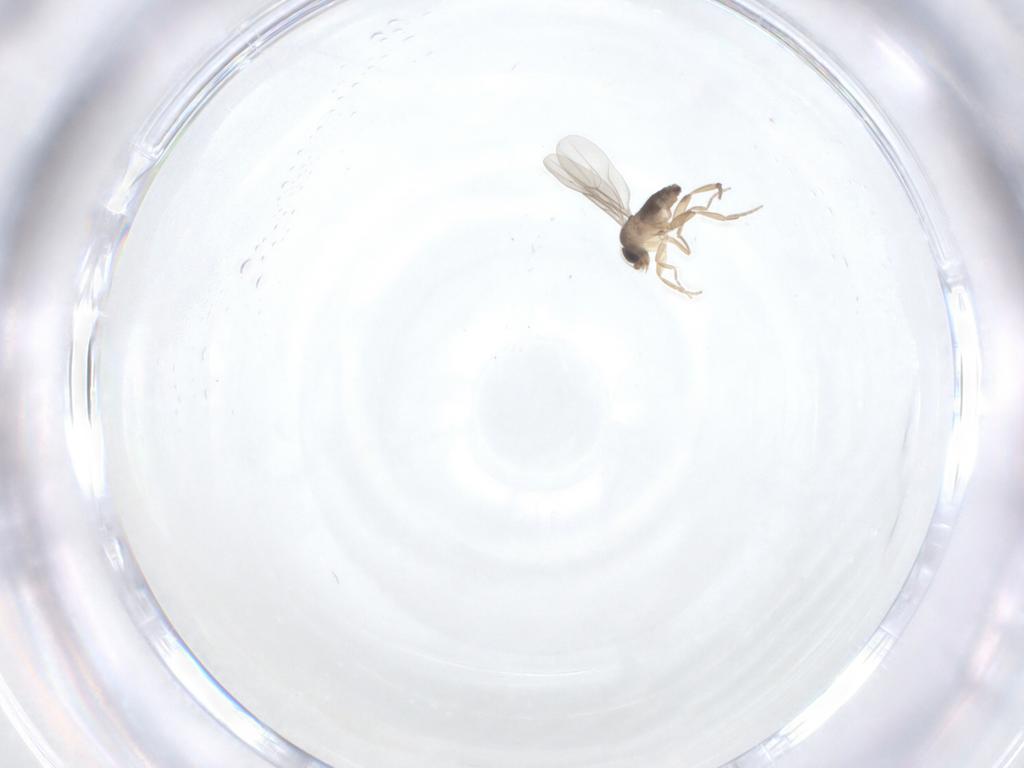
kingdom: Animalia
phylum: Arthropoda
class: Insecta
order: Diptera
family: Phoridae
